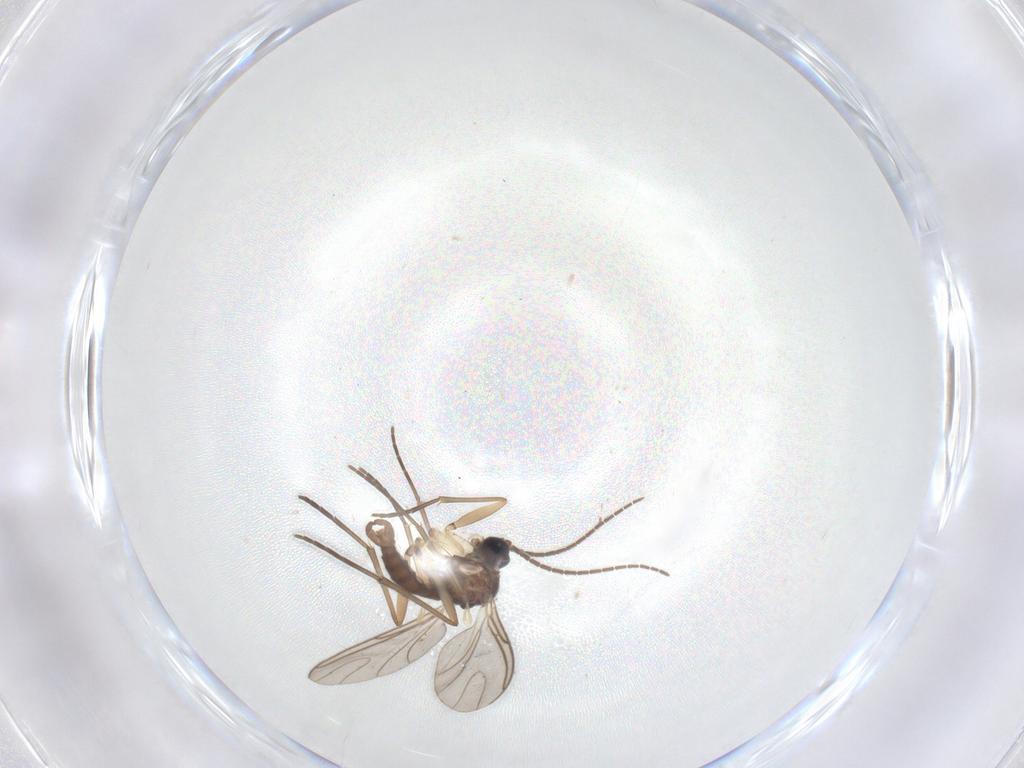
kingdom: Animalia
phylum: Arthropoda
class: Insecta
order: Diptera
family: Sciaridae
